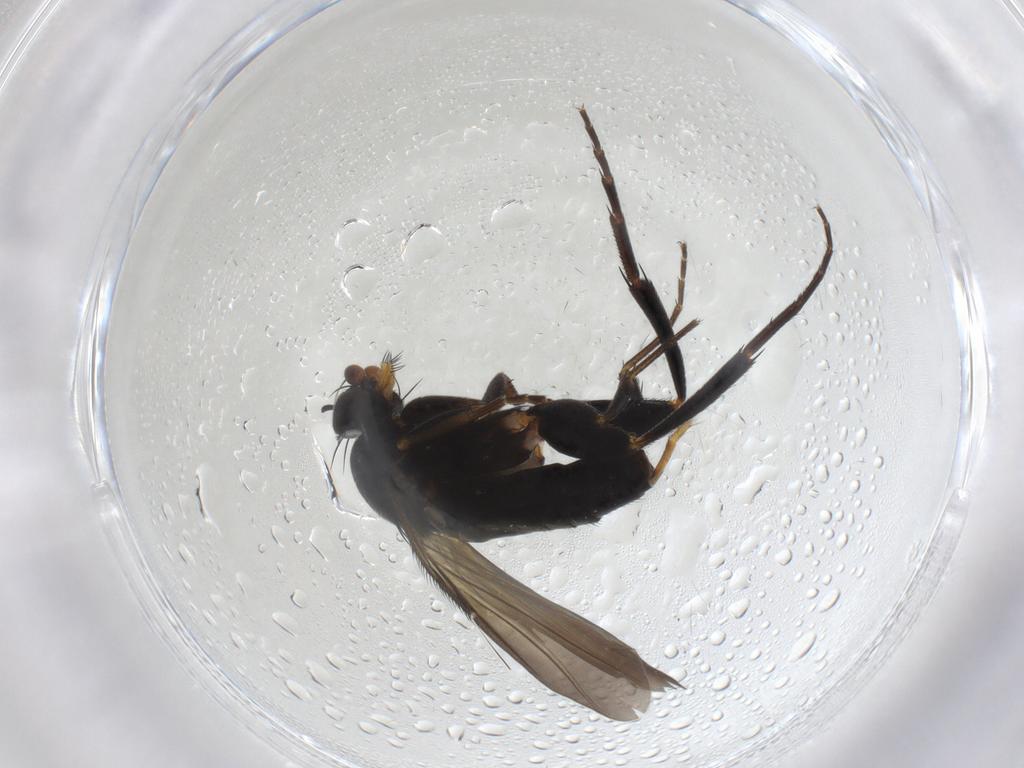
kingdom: Animalia
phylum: Arthropoda
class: Insecta
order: Diptera
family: Phoridae
